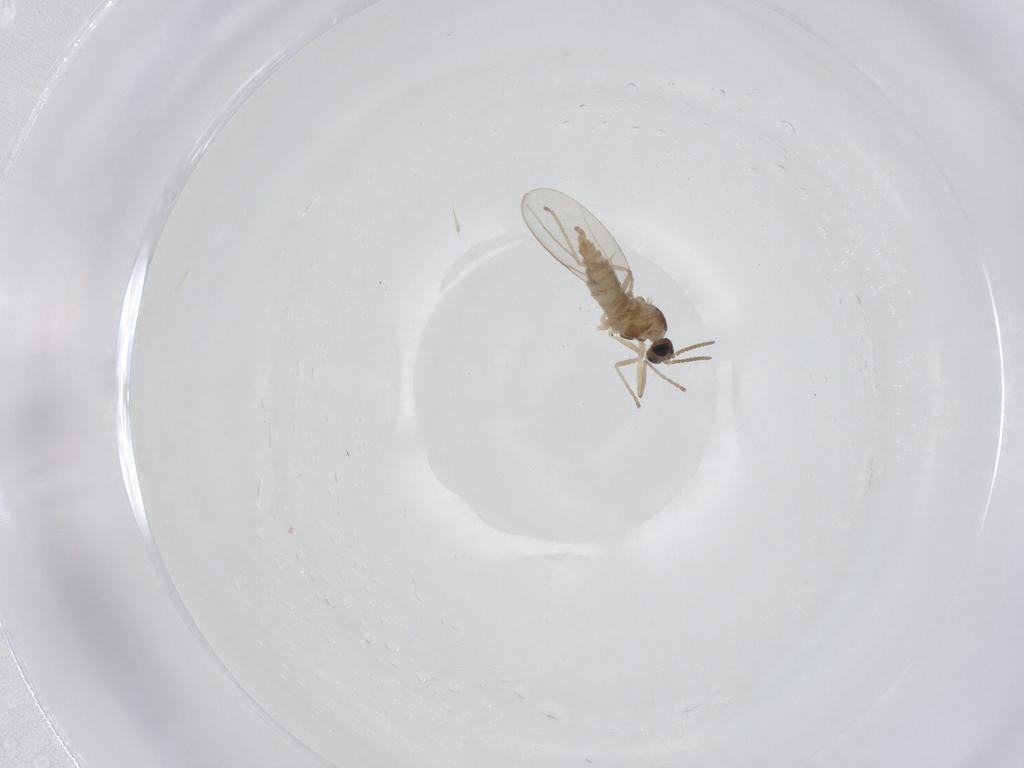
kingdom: Animalia
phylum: Arthropoda
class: Insecta
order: Diptera
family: Cecidomyiidae
